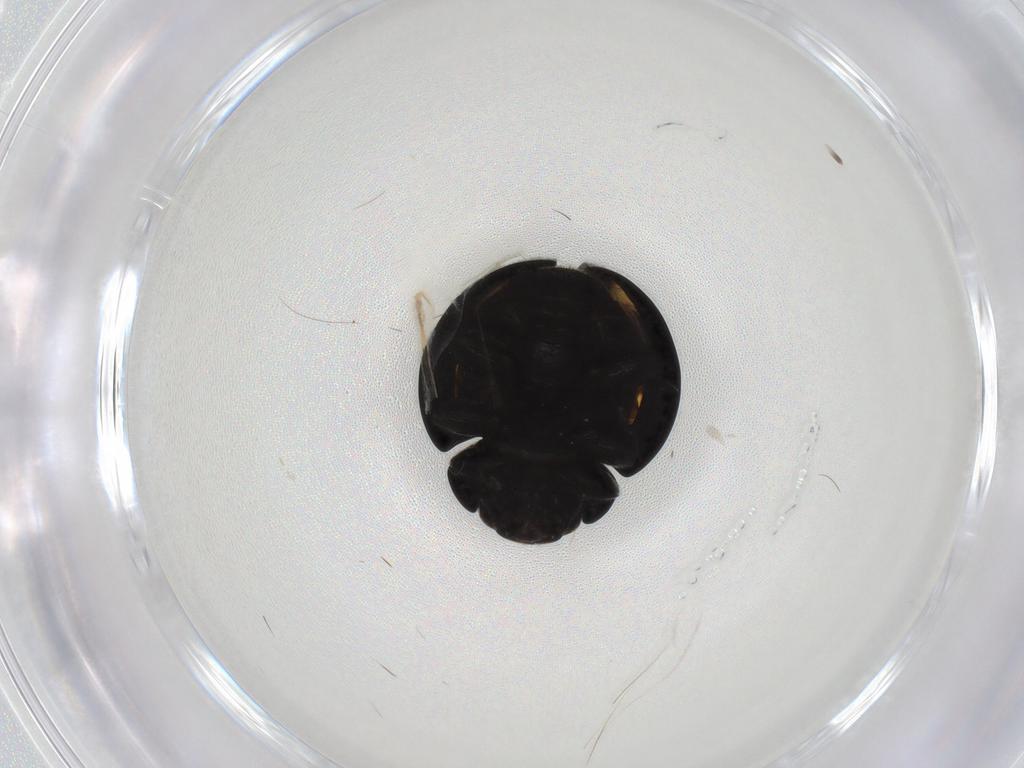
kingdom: Animalia
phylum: Arthropoda
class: Insecta
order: Coleoptera
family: Coccinellidae
